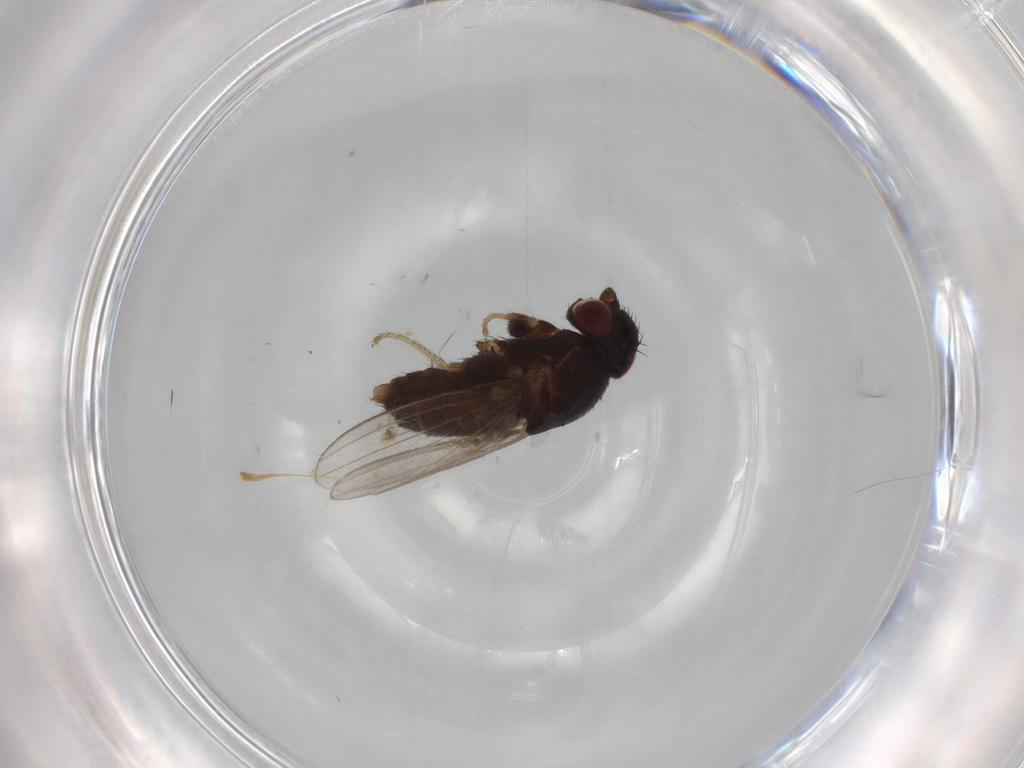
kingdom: Animalia
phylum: Arthropoda
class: Insecta
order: Diptera
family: Milichiidae
